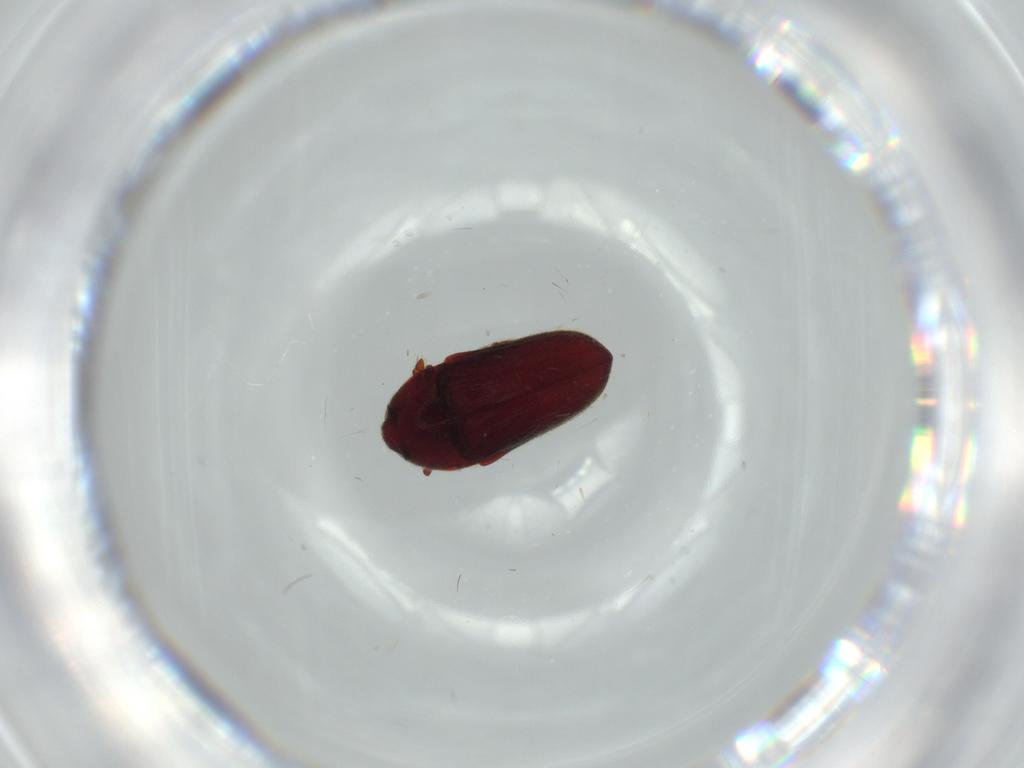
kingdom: Animalia
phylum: Arthropoda
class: Insecta
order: Coleoptera
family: Throscidae
